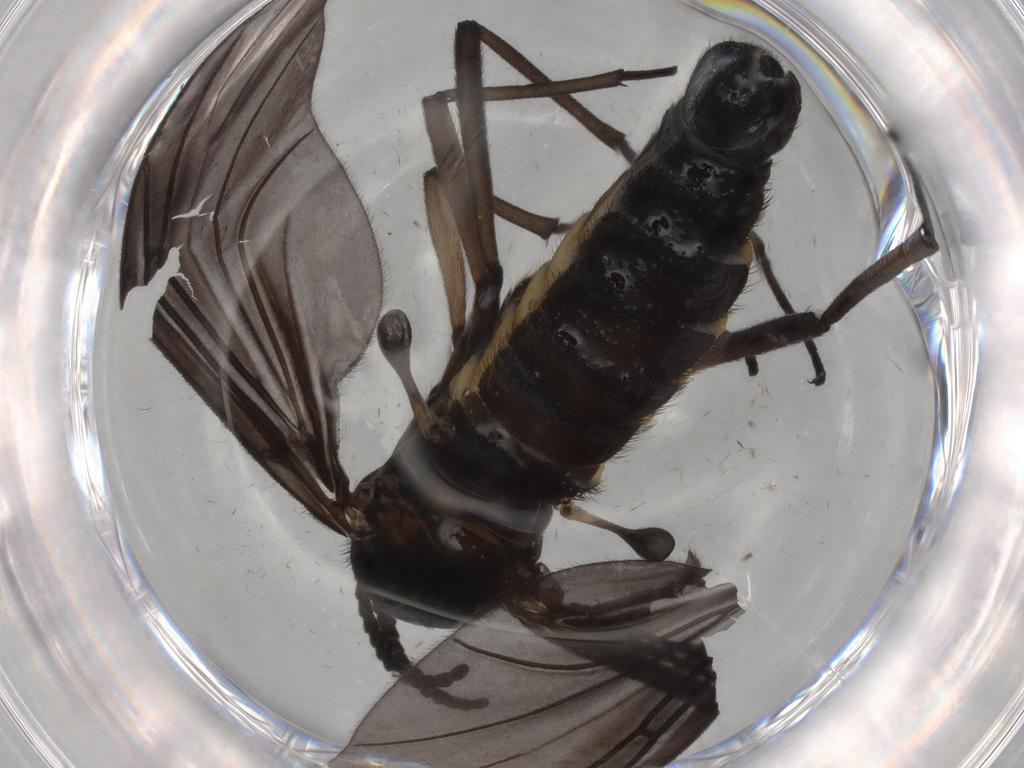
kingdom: Animalia
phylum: Arthropoda
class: Insecta
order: Diptera
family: Sciaridae
